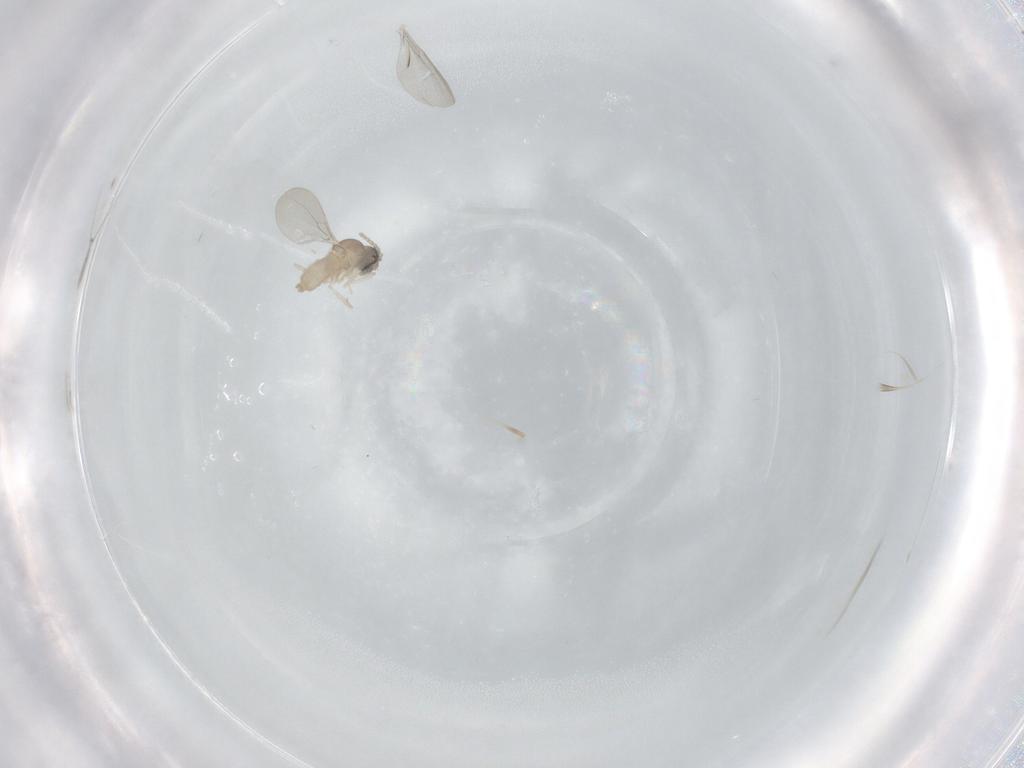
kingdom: Animalia
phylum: Arthropoda
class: Insecta
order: Diptera
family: Cecidomyiidae
